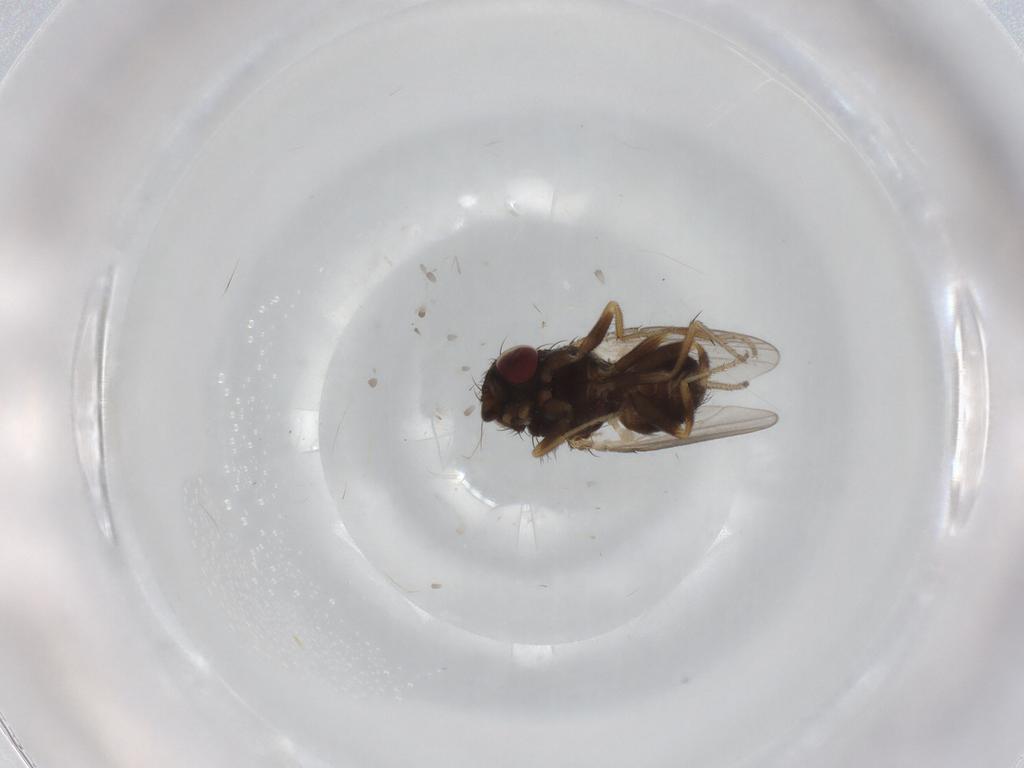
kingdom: Animalia
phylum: Arthropoda
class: Insecta
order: Diptera
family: Milichiidae
